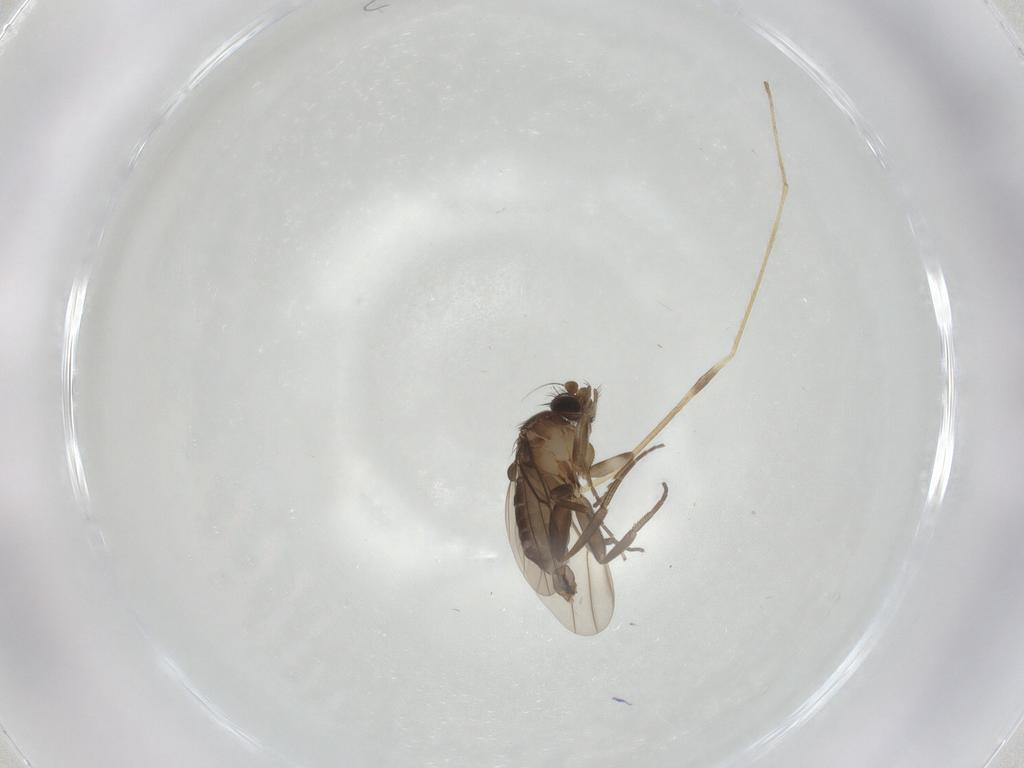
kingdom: Animalia
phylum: Arthropoda
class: Insecta
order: Diptera
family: Limoniidae
